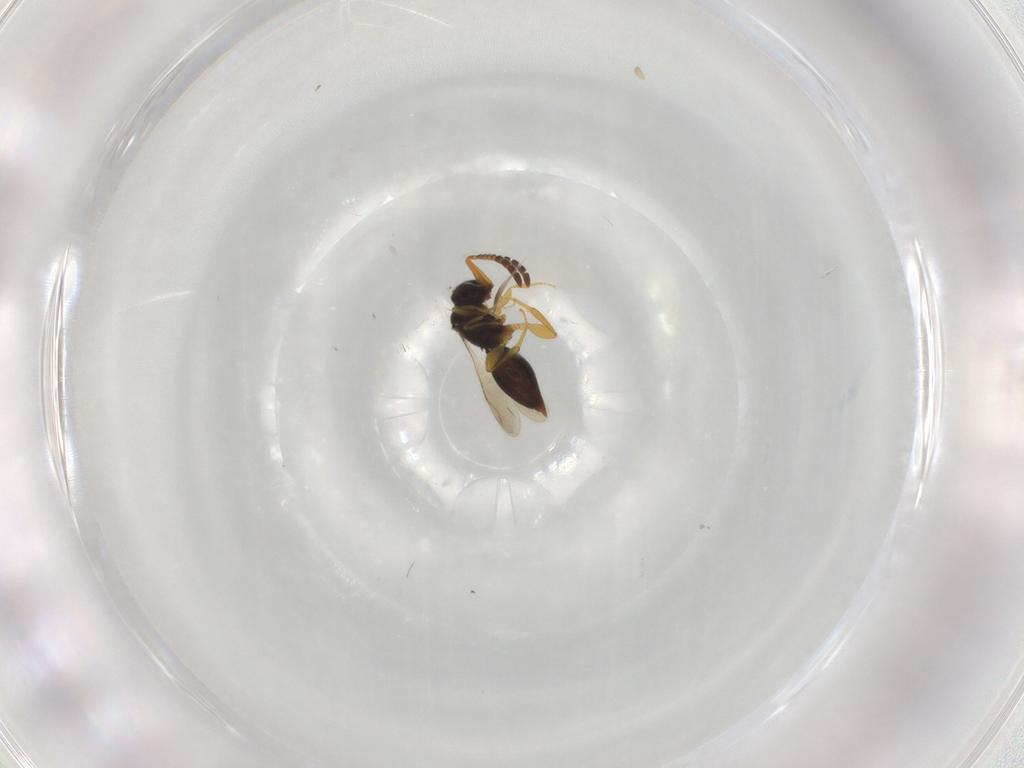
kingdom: Animalia
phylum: Arthropoda
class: Insecta
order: Hymenoptera
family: Ceraphronidae
